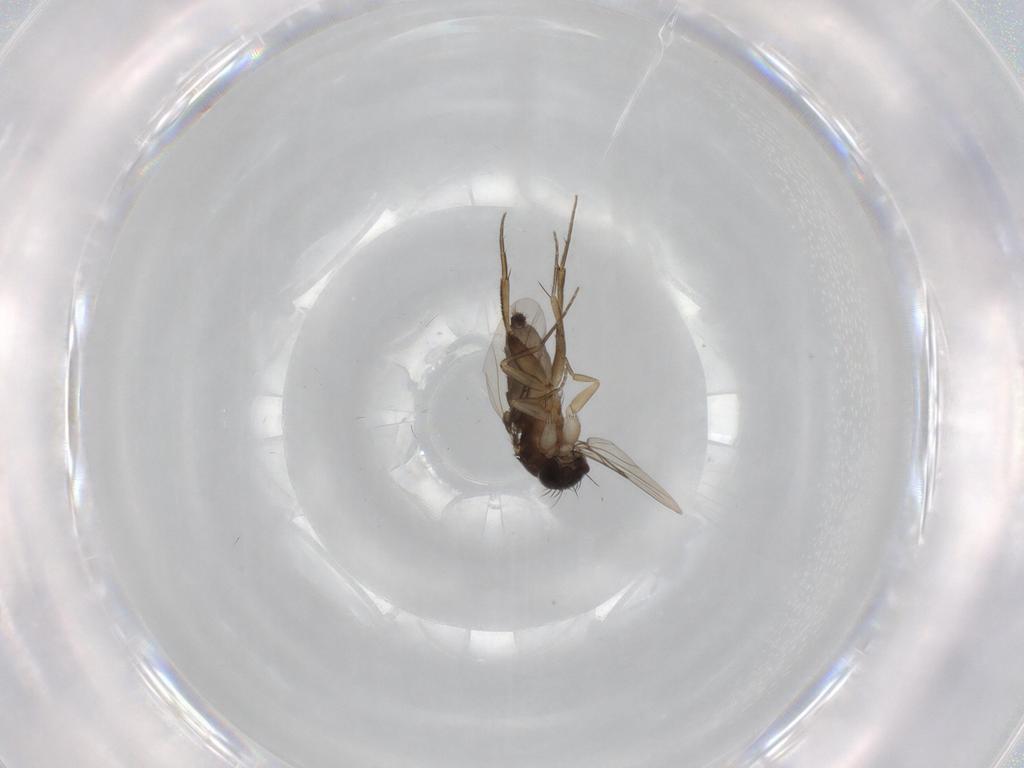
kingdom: Animalia
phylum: Arthropoda
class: Insecta
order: Diptera
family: Phoridae
